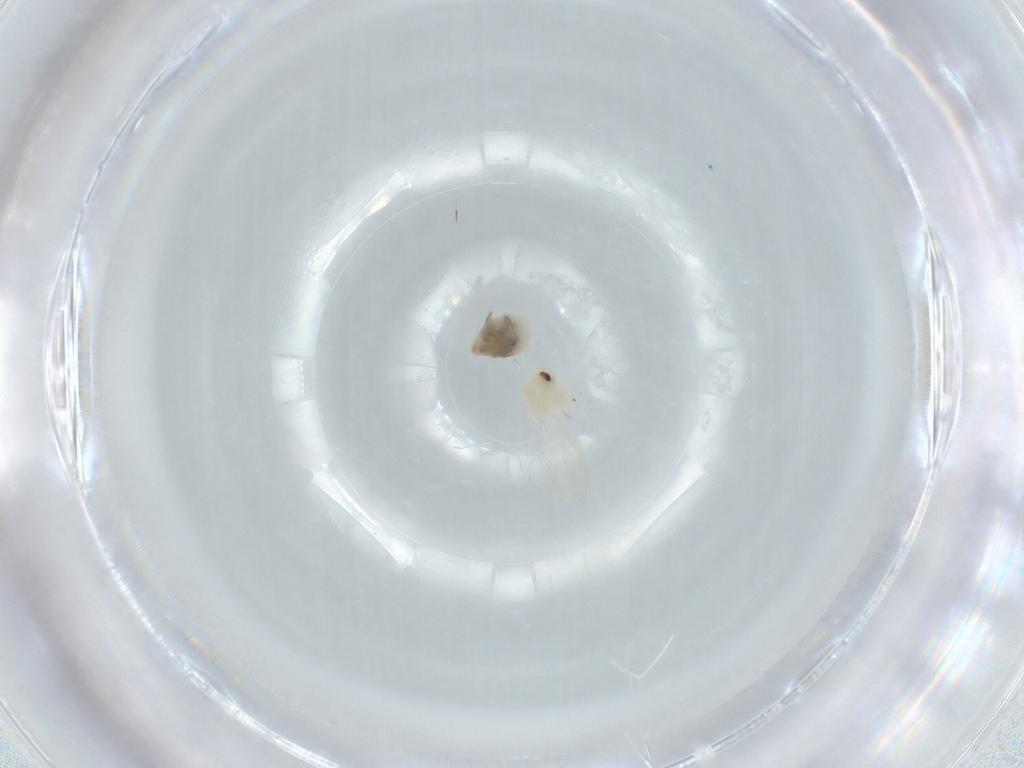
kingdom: Animalia
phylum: Arthropoda
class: Insecta
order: Hemiptera
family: Aleyrodidae
